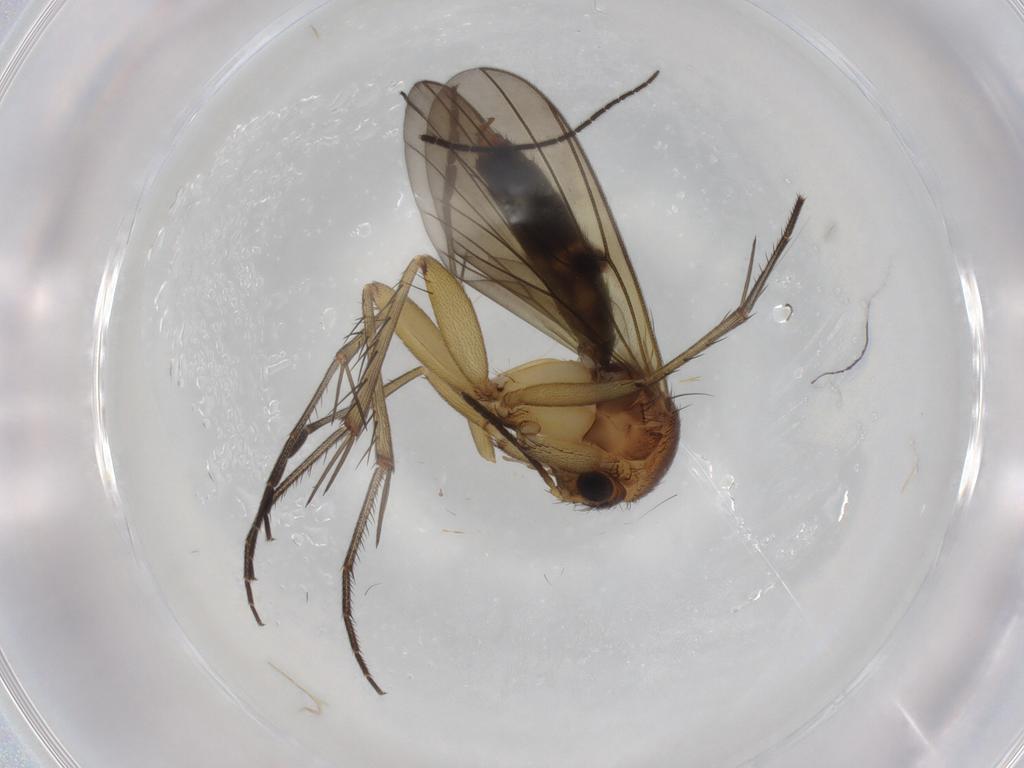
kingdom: Animalia
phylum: Arthropoda
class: Insecta
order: Diptera
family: Mycetophilidae
